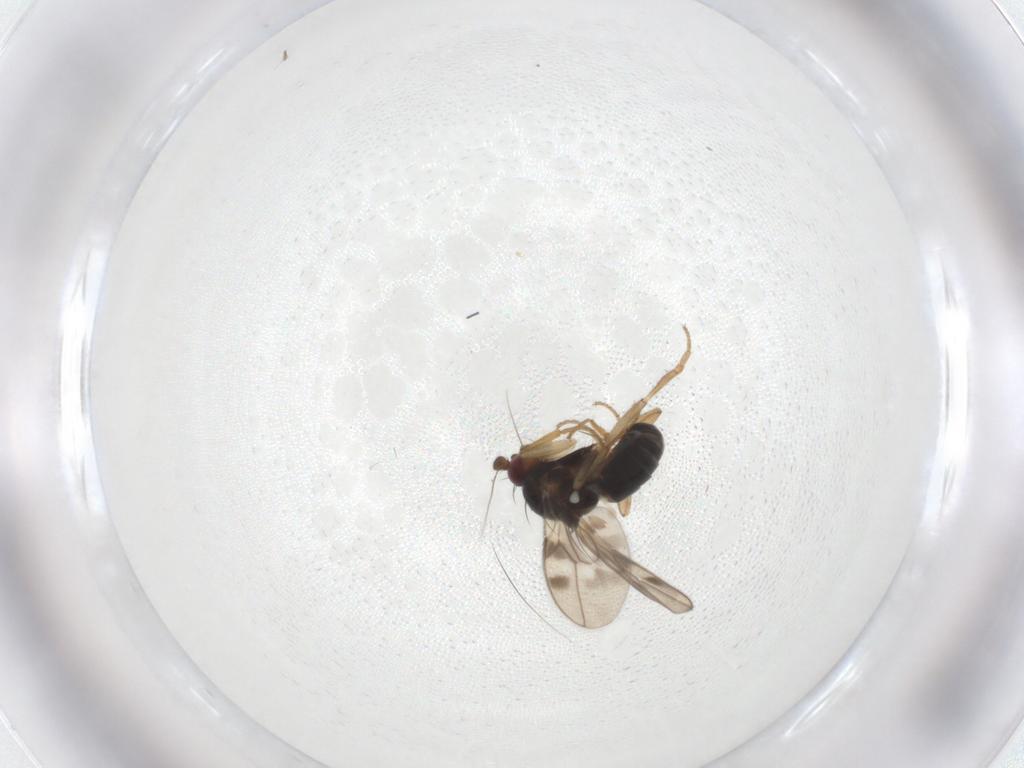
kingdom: Animalia
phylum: Arthropoda
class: Insecta
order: Diptera
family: Sphaeroceridae
